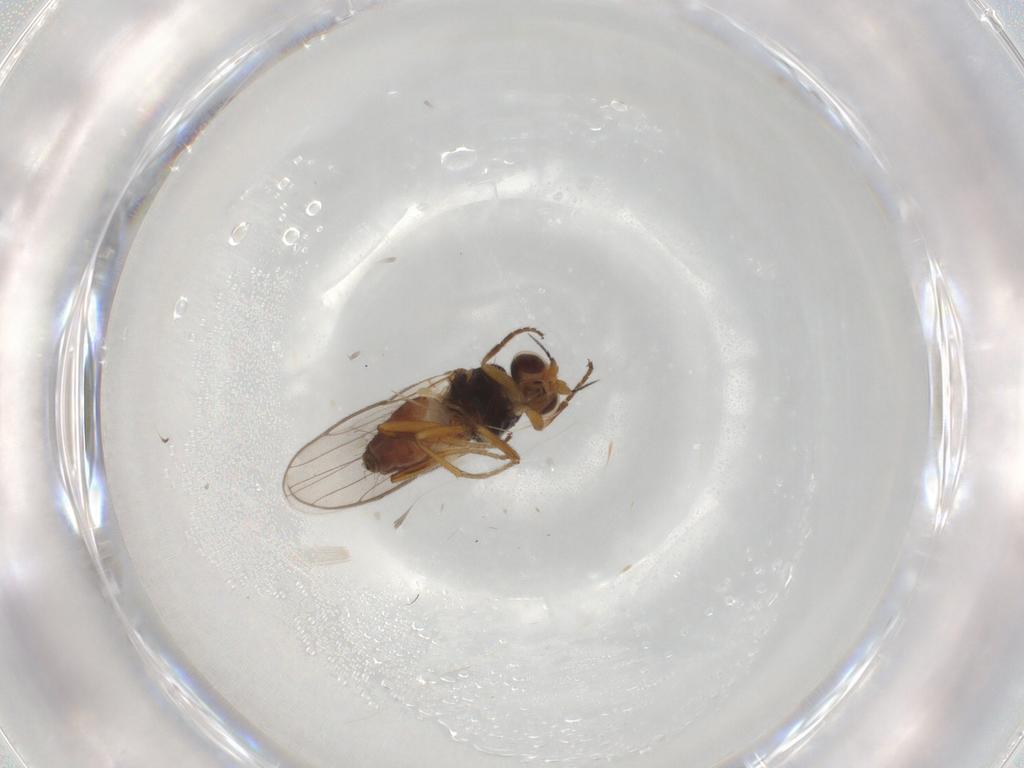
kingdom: Animalia
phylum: Arthropoda
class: Insecta
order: Diptera
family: Chloropidae
